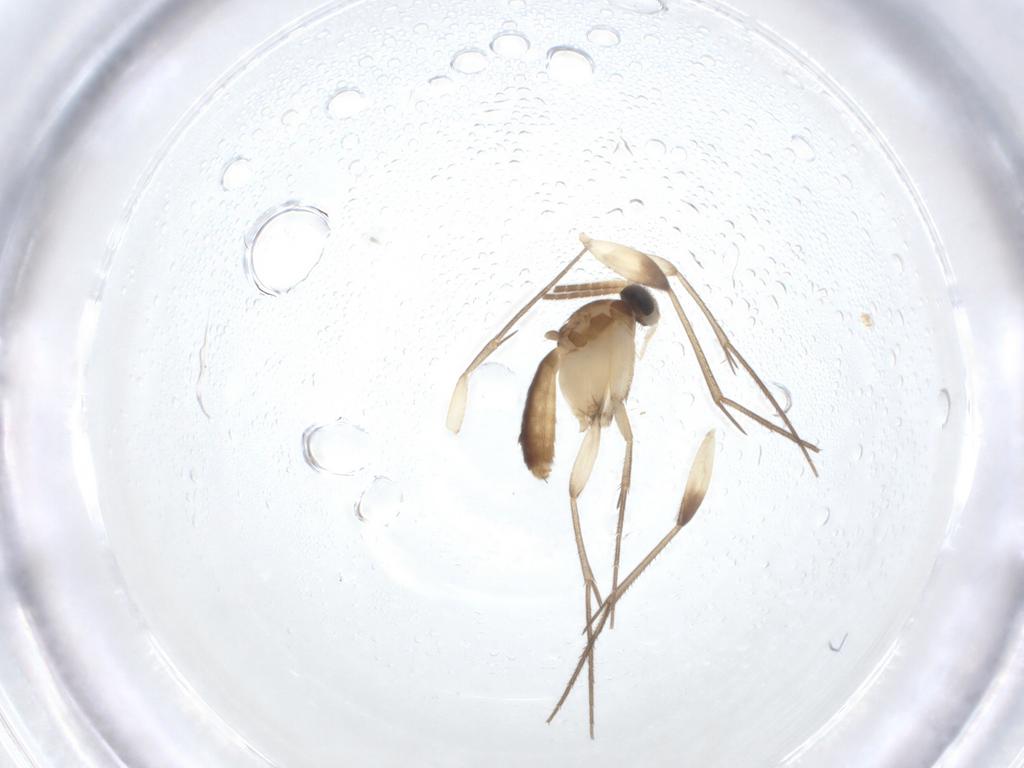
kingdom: Animalia
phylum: Arthropoda
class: Insecta
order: Diptera
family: Mycetophilidae
